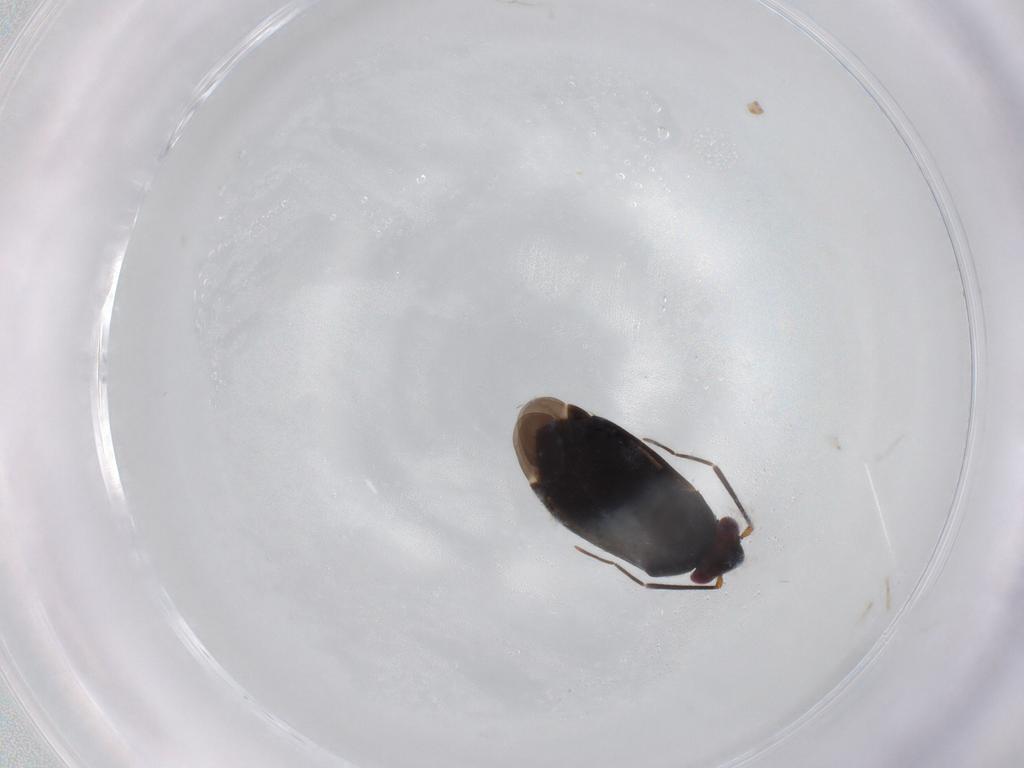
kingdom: Animalia
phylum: Arthropoda
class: Insecta
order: Hemiptera
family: Miridae
